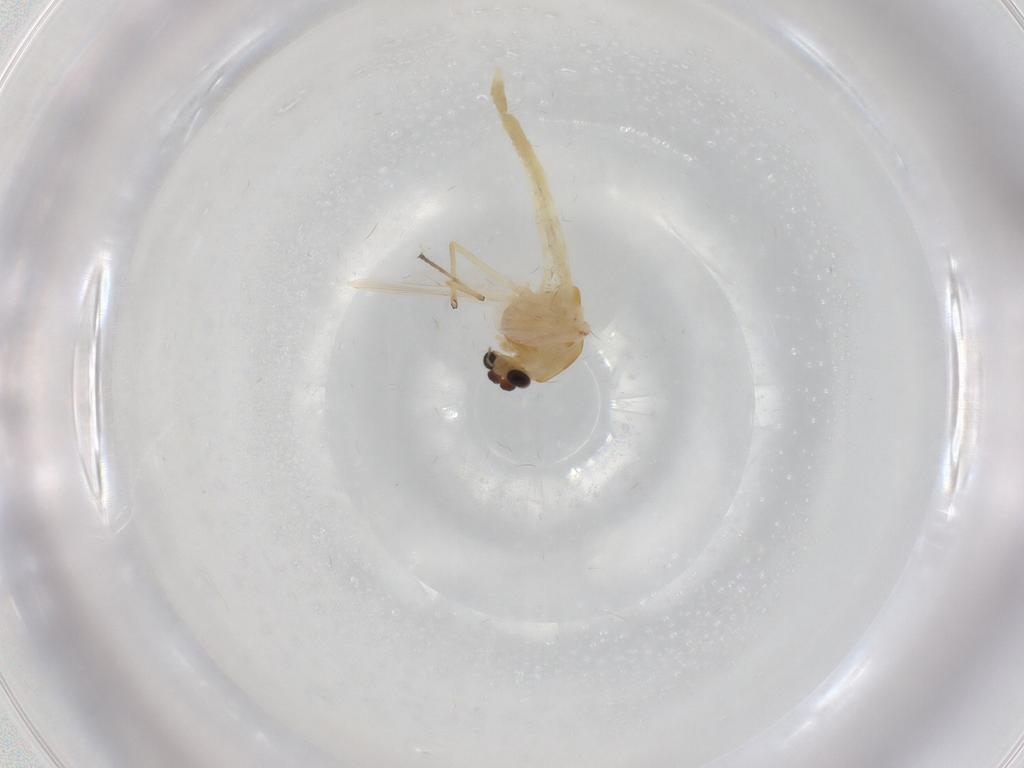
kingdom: Animalia
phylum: Arthropoda
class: Insecta
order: Diptera
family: Chironomidae
